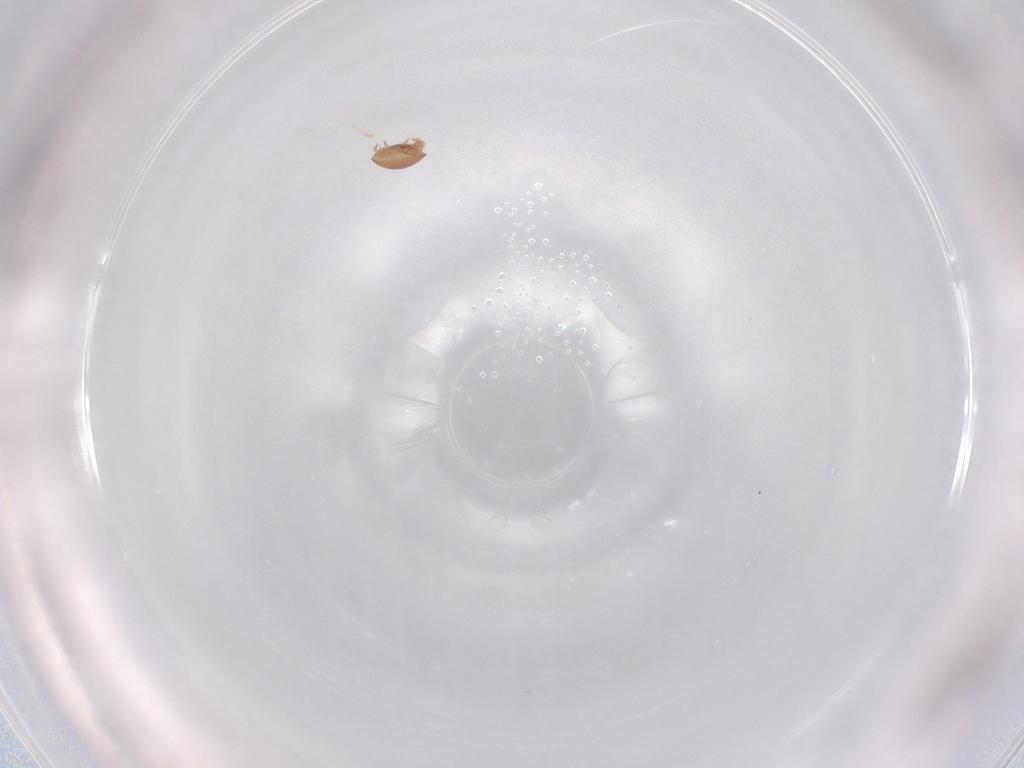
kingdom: Animalia
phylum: Arthropoda
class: Arachnida
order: Mesostigmata
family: Trematuridae
